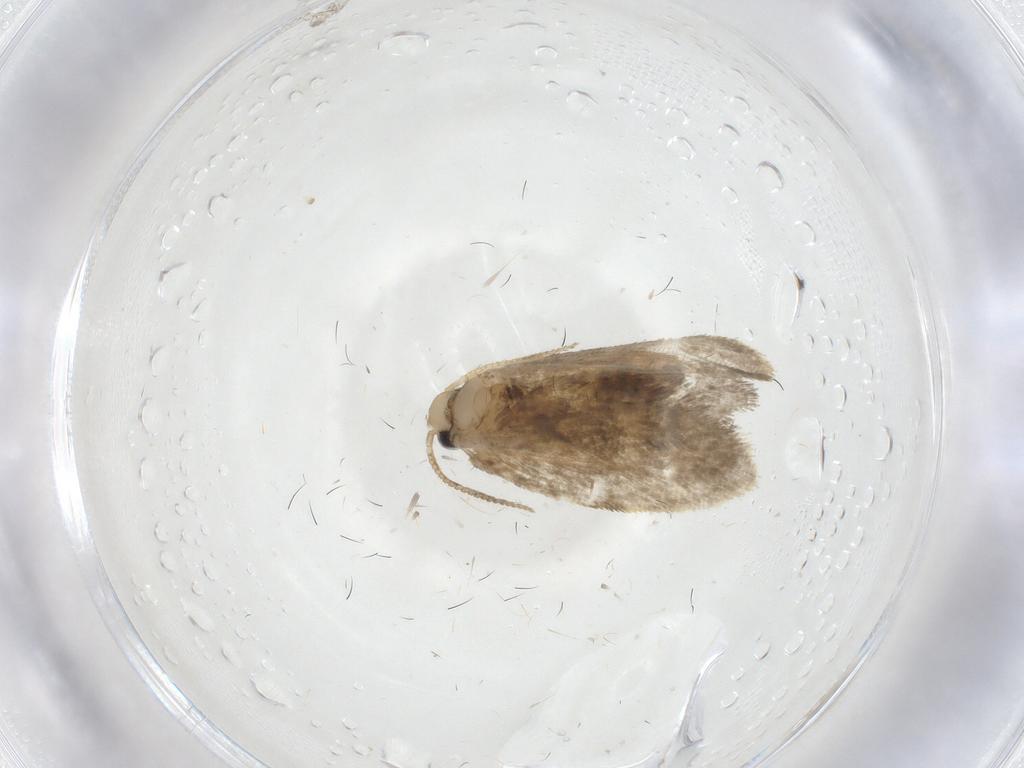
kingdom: Animalia
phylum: Arthropoda
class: Insecta
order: Lepidoptera
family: Psychidae
